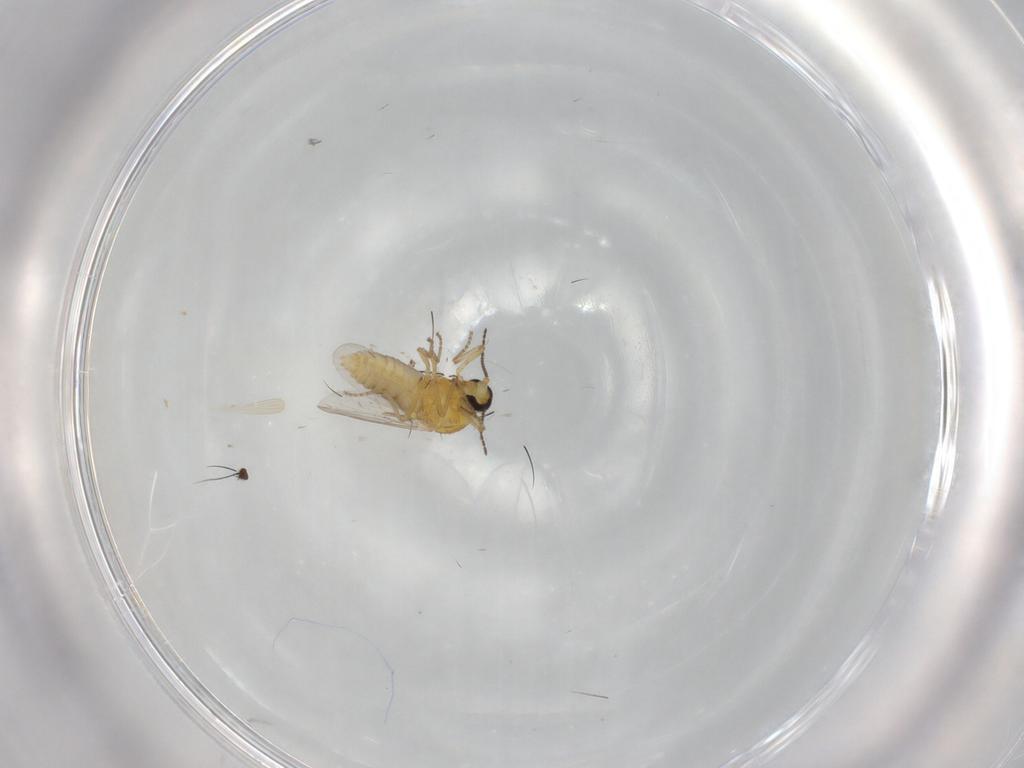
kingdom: Animalia
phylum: Arthropoda
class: Insecta
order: Diptera
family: Ceratopogonidae
